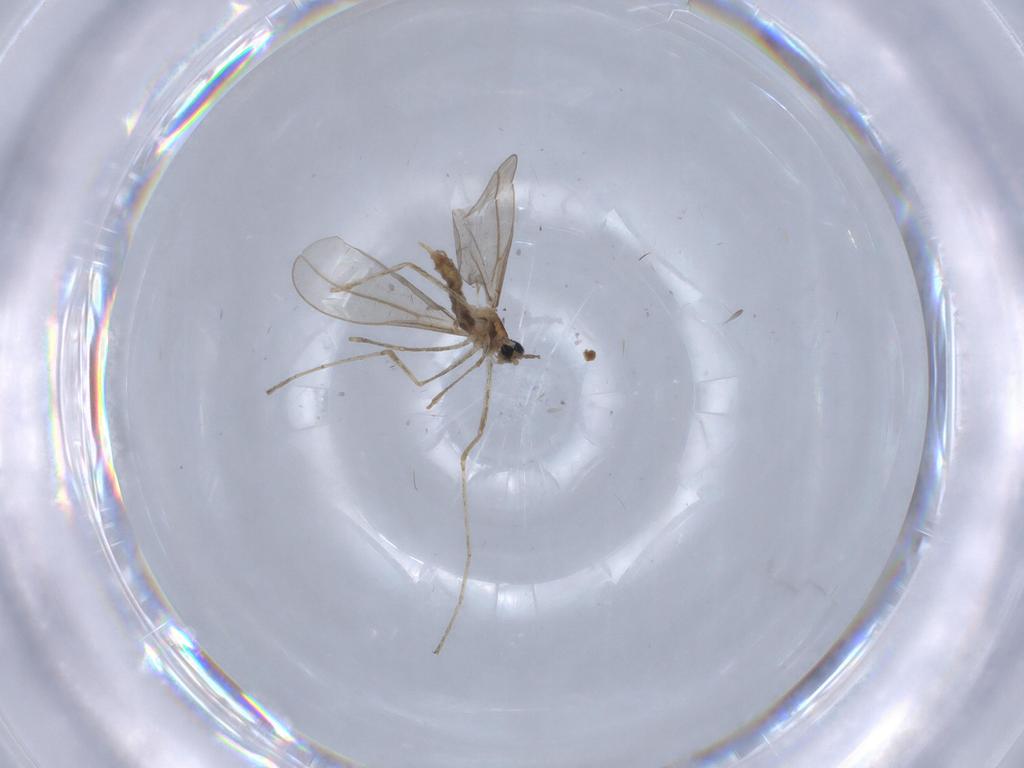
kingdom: Animalia
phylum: Arthropoda
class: Insecta
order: Diptera
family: Cecidomyiidae
